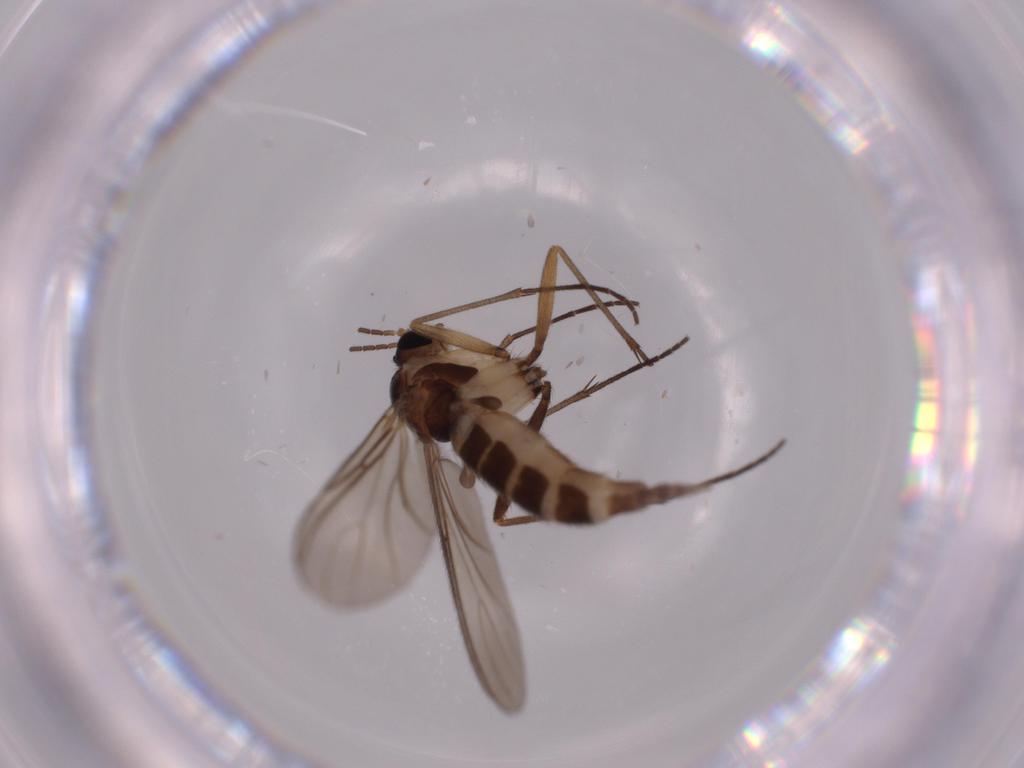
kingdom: Animalia
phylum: Arthropoda
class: Insecta
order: Diptera
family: Sciaridae
